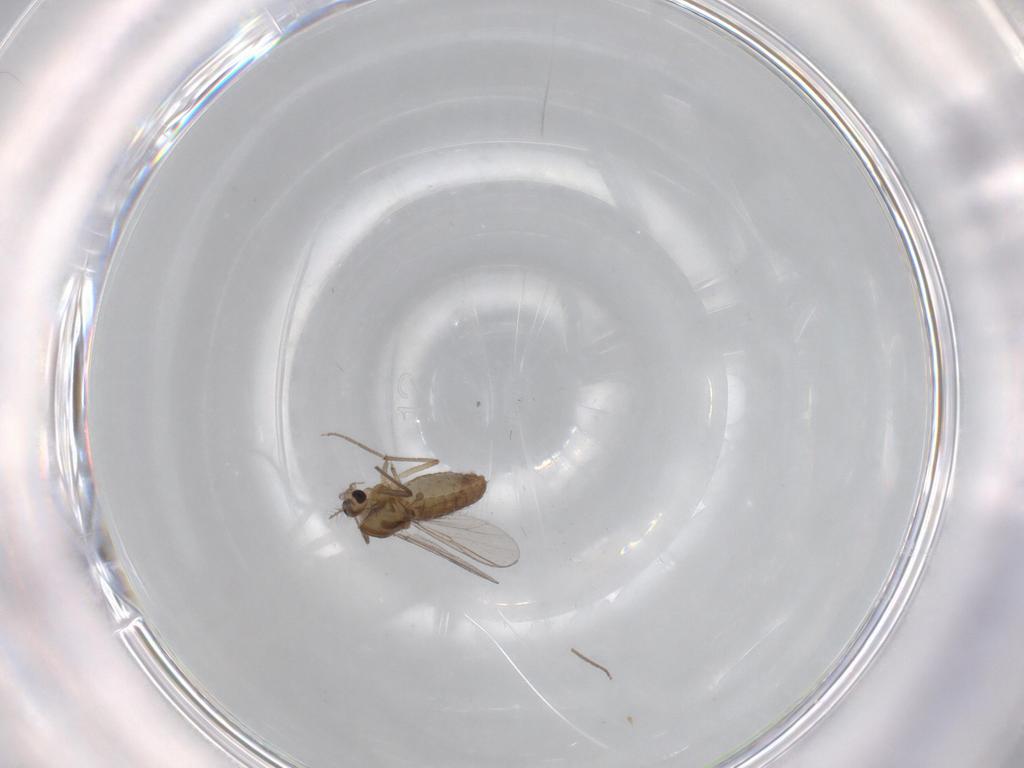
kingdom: Animalia
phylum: Arthropoda
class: Insecta
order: Diptera
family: Chironomidae
